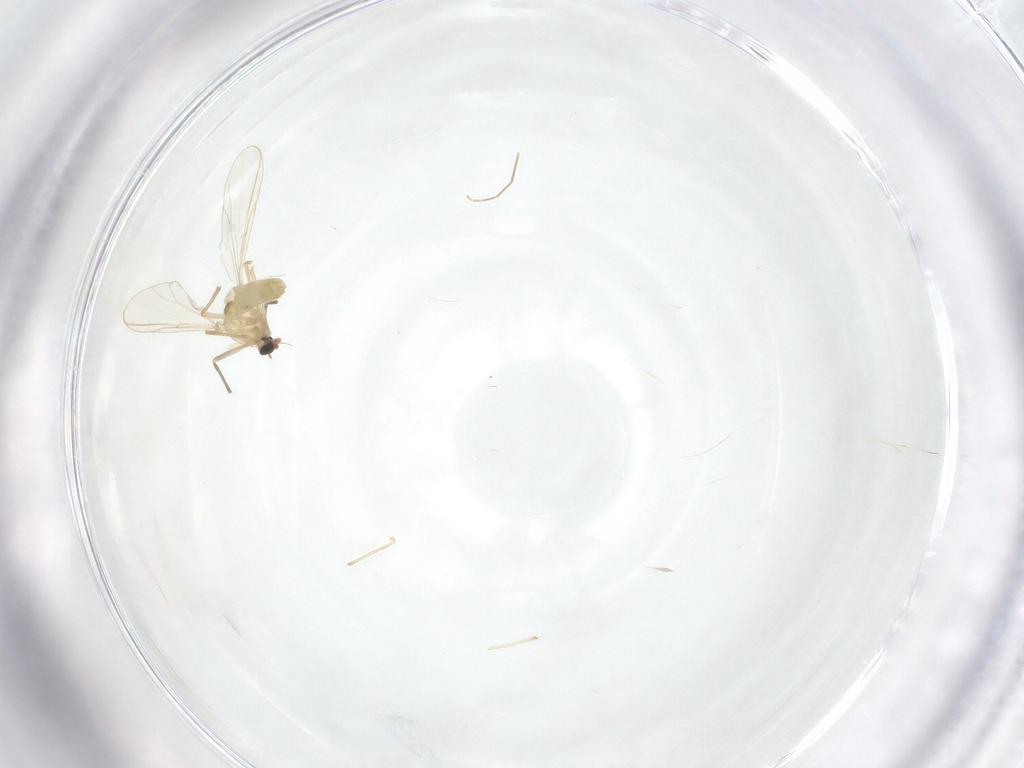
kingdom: Animalia
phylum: Arthropoda
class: Insecta
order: Diptera
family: Chironomidae
